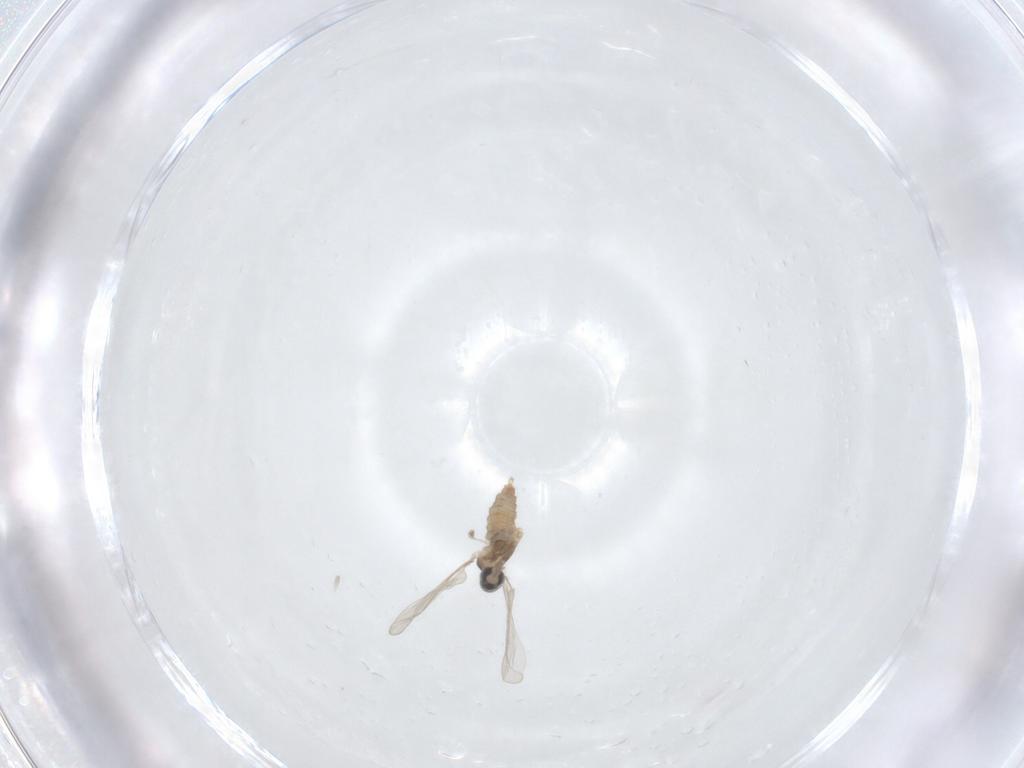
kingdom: Animalia
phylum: Arthropoda
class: Insecta
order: Diptera
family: Cecidomyiidae
